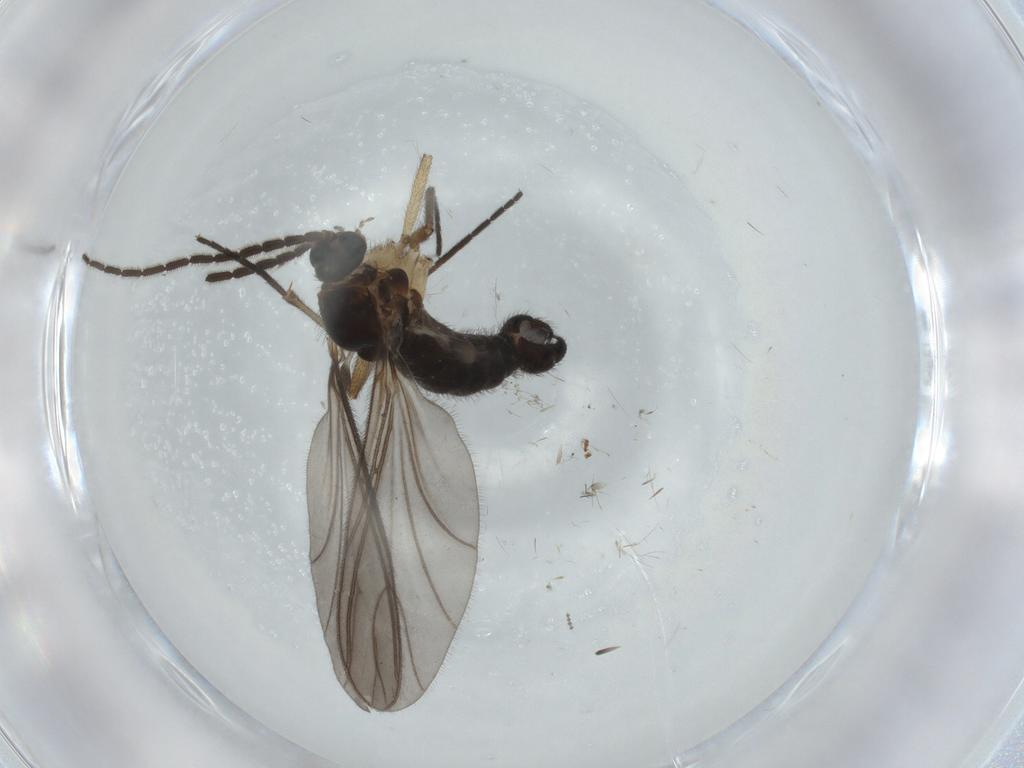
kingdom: Animalia
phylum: Arthropoda
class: Insecta
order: Diptera
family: Sciaridae
